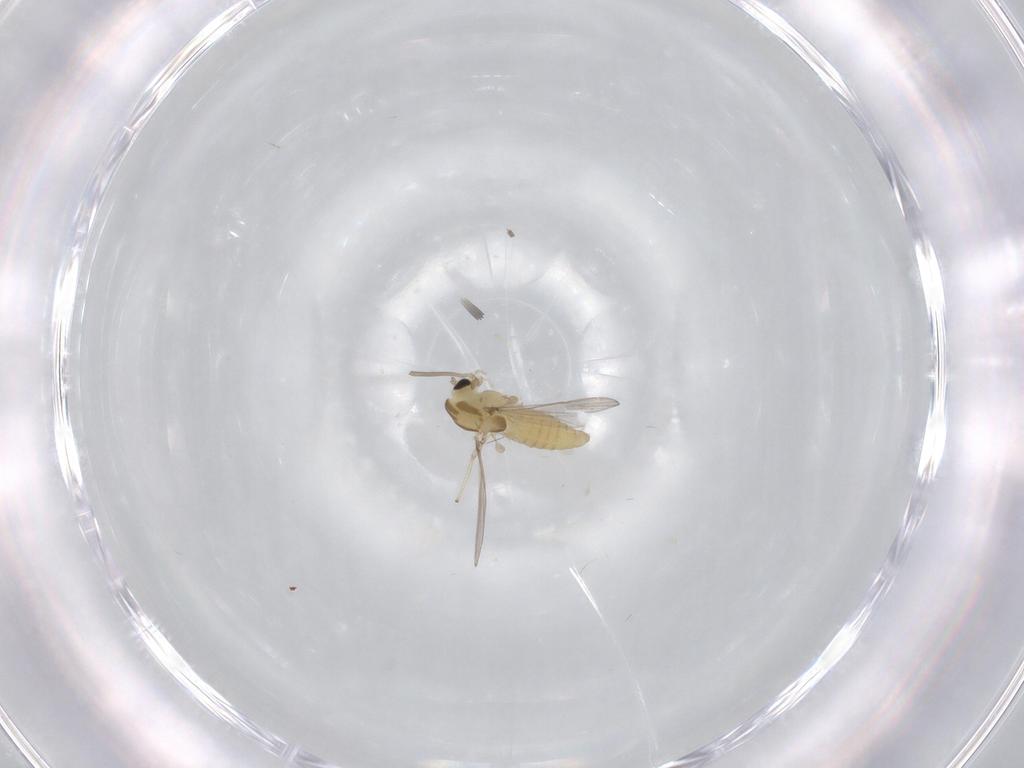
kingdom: Animalia
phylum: Arthropoda
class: Insecta
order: Diptera
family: Chironomidae
